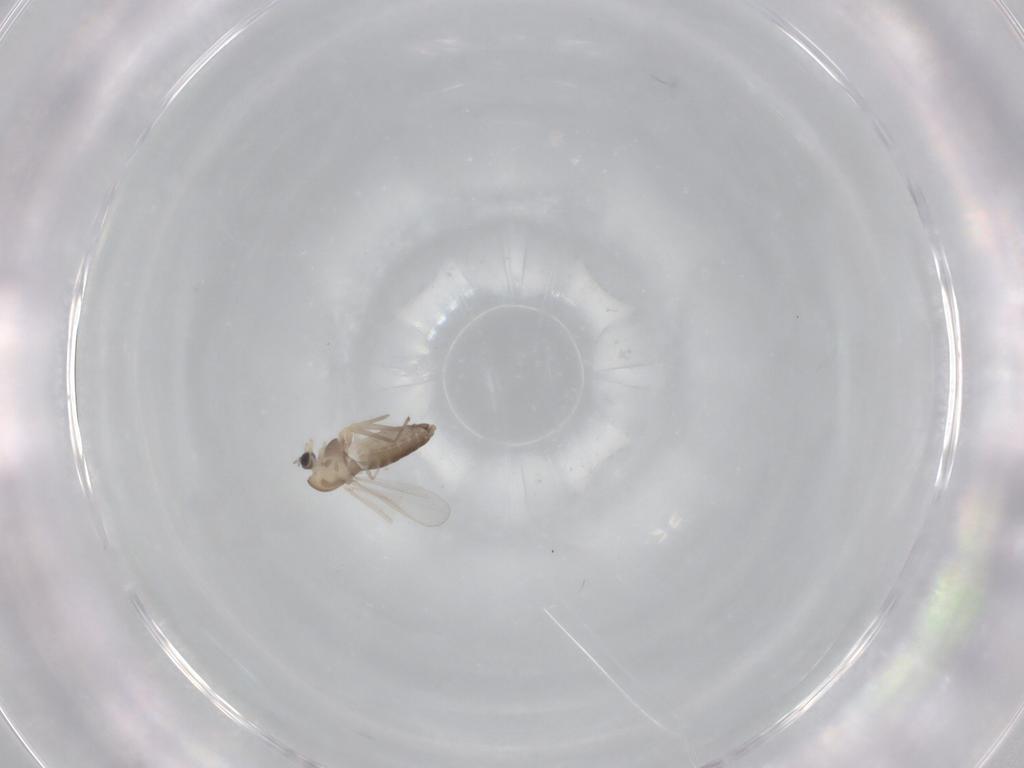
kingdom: Animalia
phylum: Arthropoda
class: Insecta
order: Diptera
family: Chironomidae
